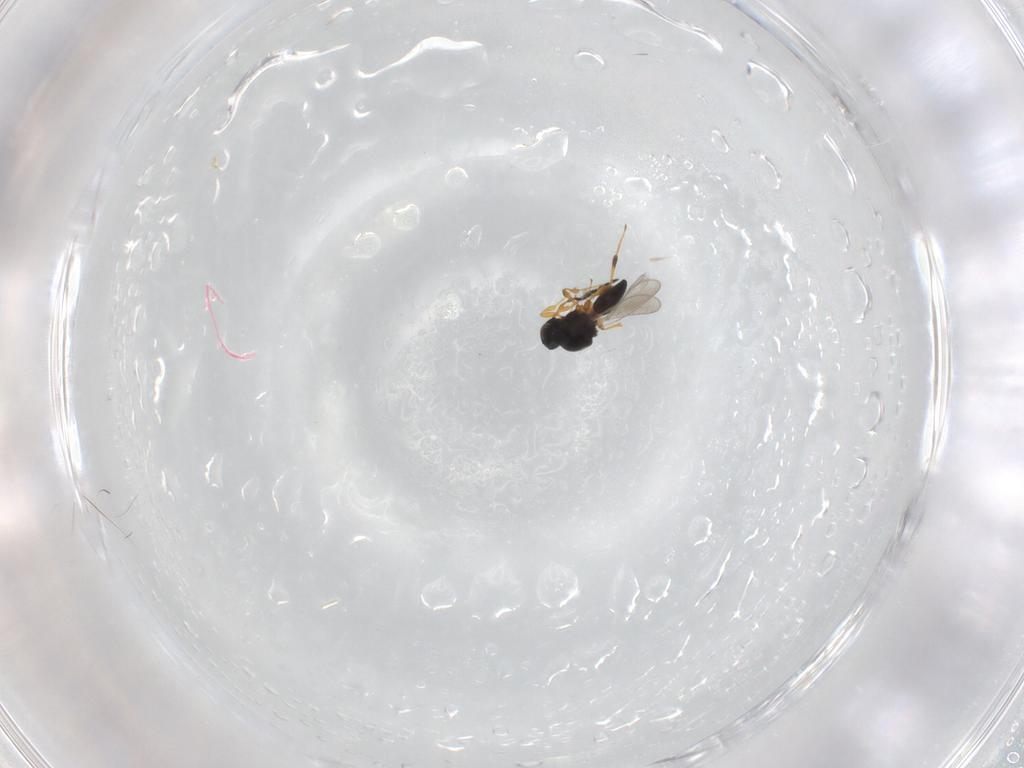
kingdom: Animalia
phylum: Arthropoda
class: Insecta
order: Hymenoptera
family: Platygastridae
